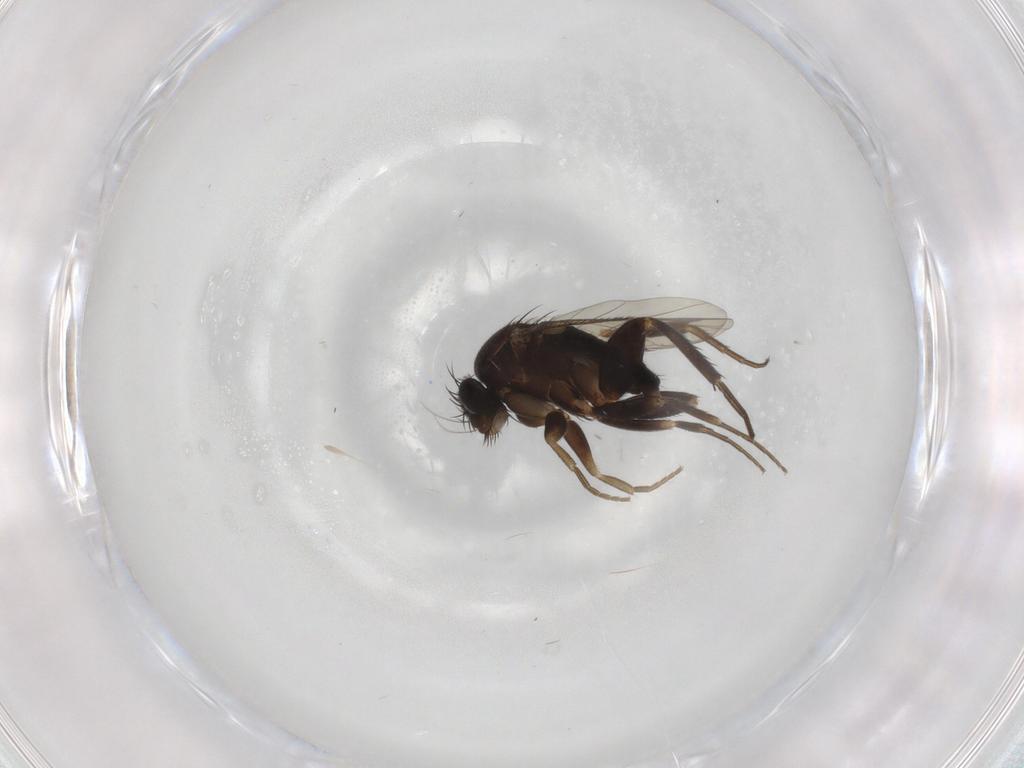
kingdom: Animalia
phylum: Arthropoda
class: Insecta
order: Diptera
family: Phoridae
